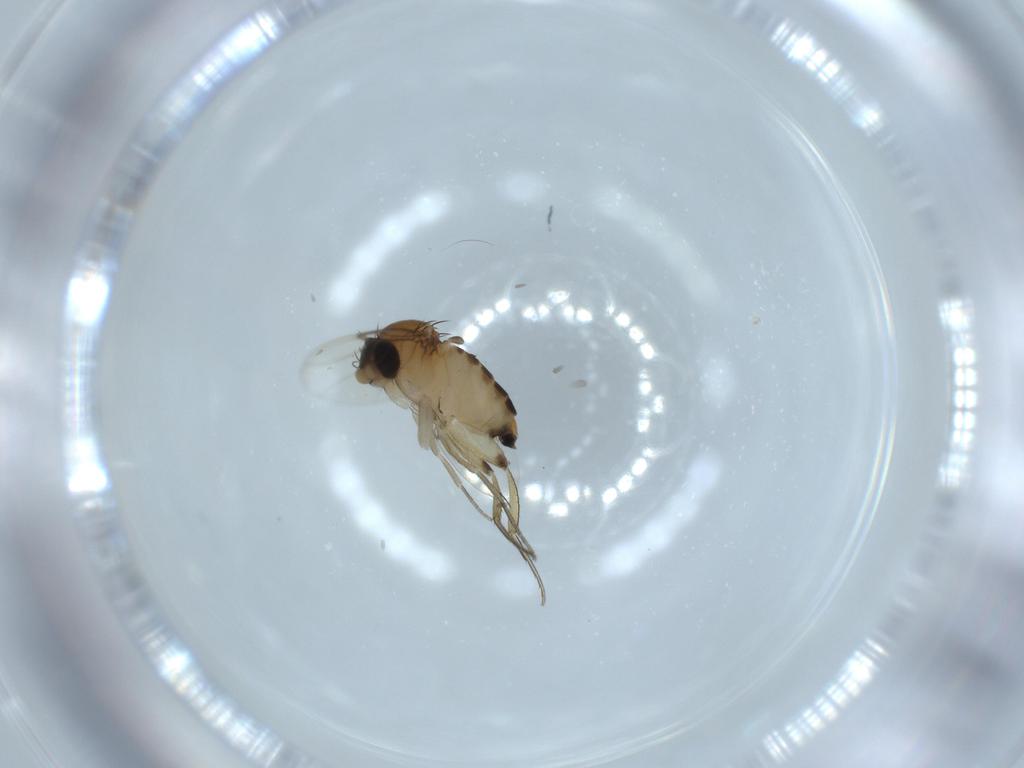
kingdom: Animalia
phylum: Arthropoda
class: Insecta
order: Diptera
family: Phoridae
